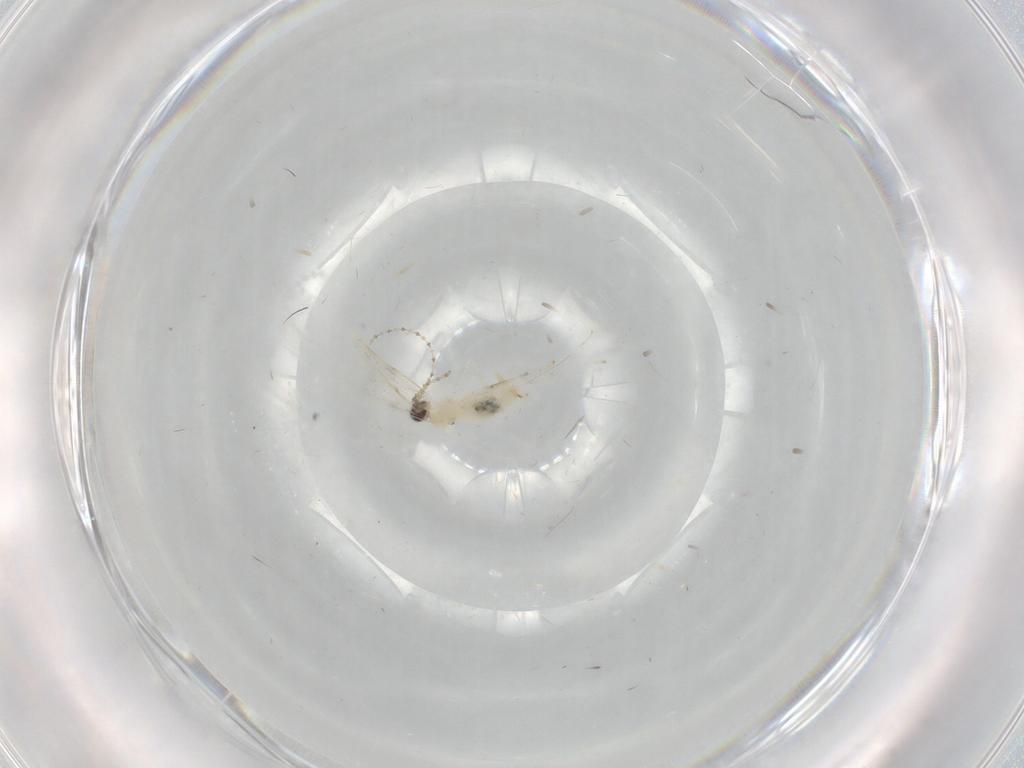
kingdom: Animalia
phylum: Arthropoda
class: Insecta
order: Diptera
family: Cecidomyiidae
